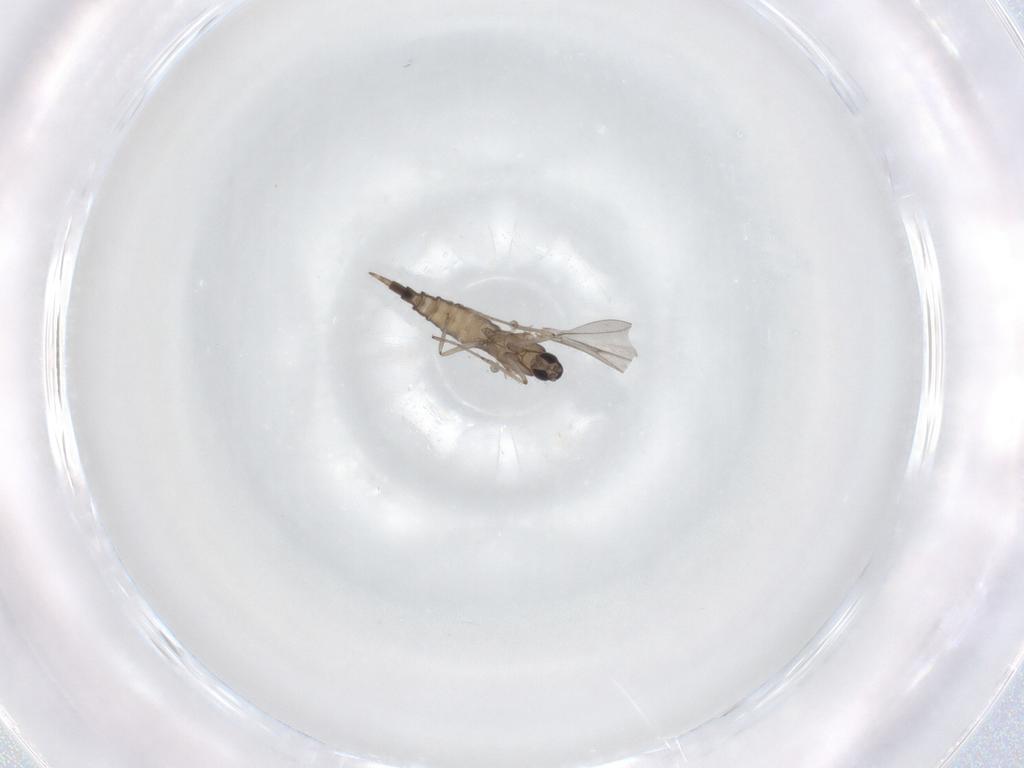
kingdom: Animalia
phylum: Arthropoda
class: Insecta
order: Diptera
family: Cecidomyiidae
